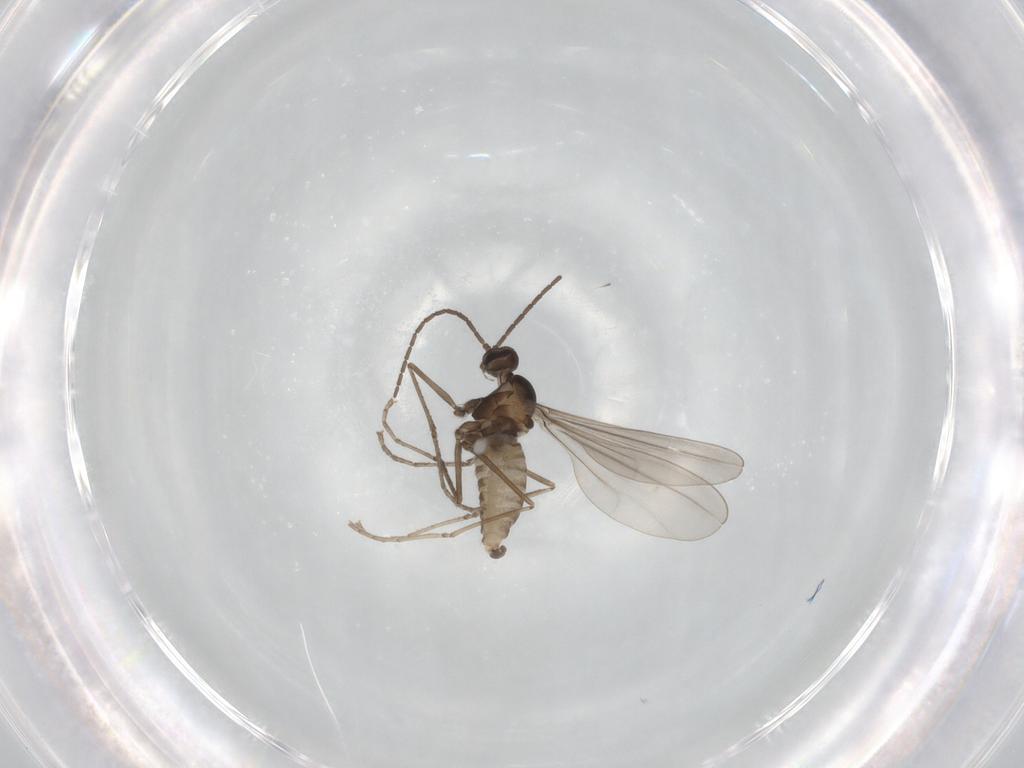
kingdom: Animalia
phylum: Arthropoda
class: Insecta
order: Diptera
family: Cecidomyiidae
